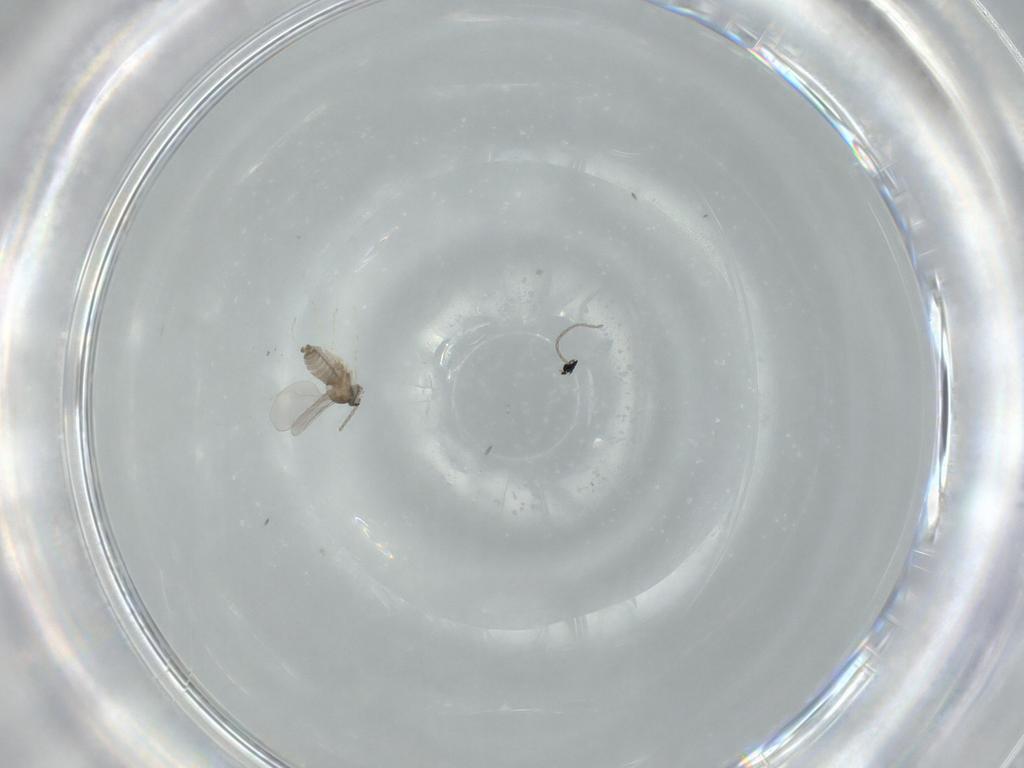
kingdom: Animalia
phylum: Arthropoda
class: Insecta
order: Diptera
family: Cecidomyiidae
